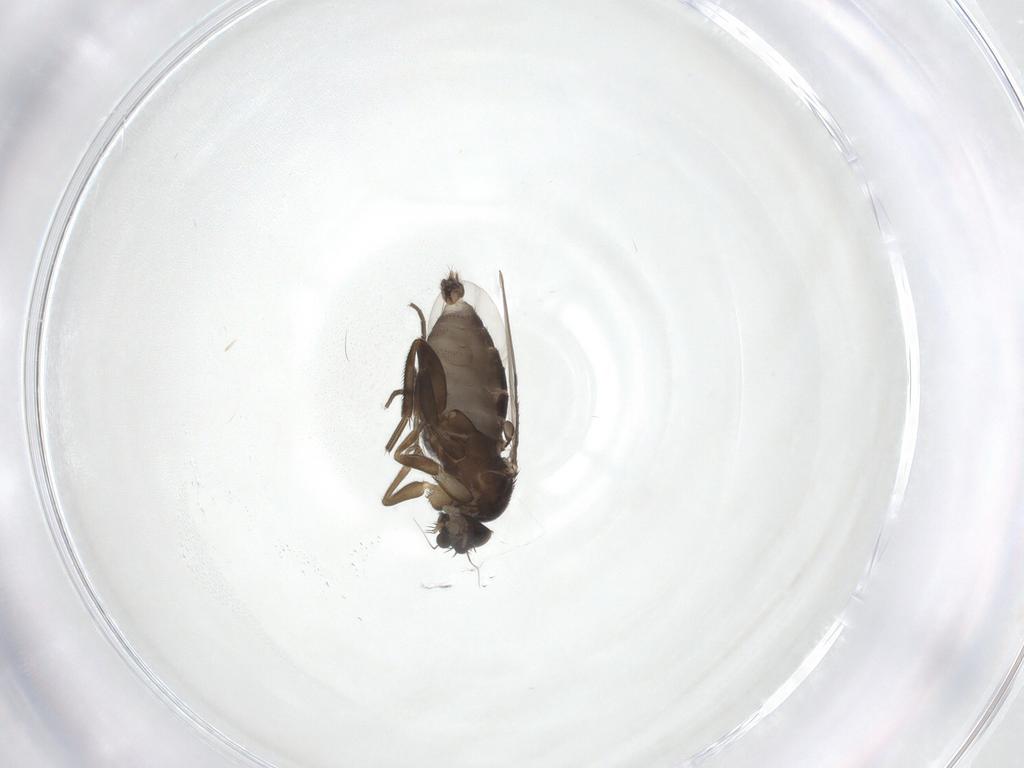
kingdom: Animalia
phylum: Arthropoda
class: Insecta
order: Diptera
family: Phoridae
